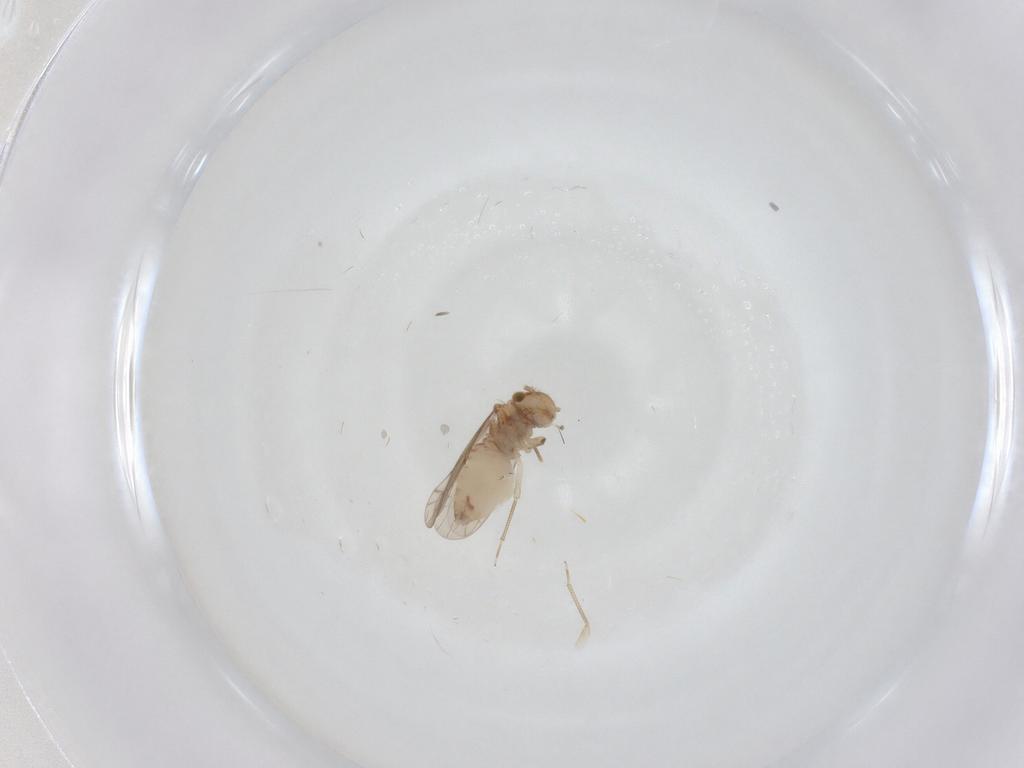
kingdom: Animalia
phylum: Arthropoda
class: Insecta
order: Psocodea
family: Ectopsocidae
